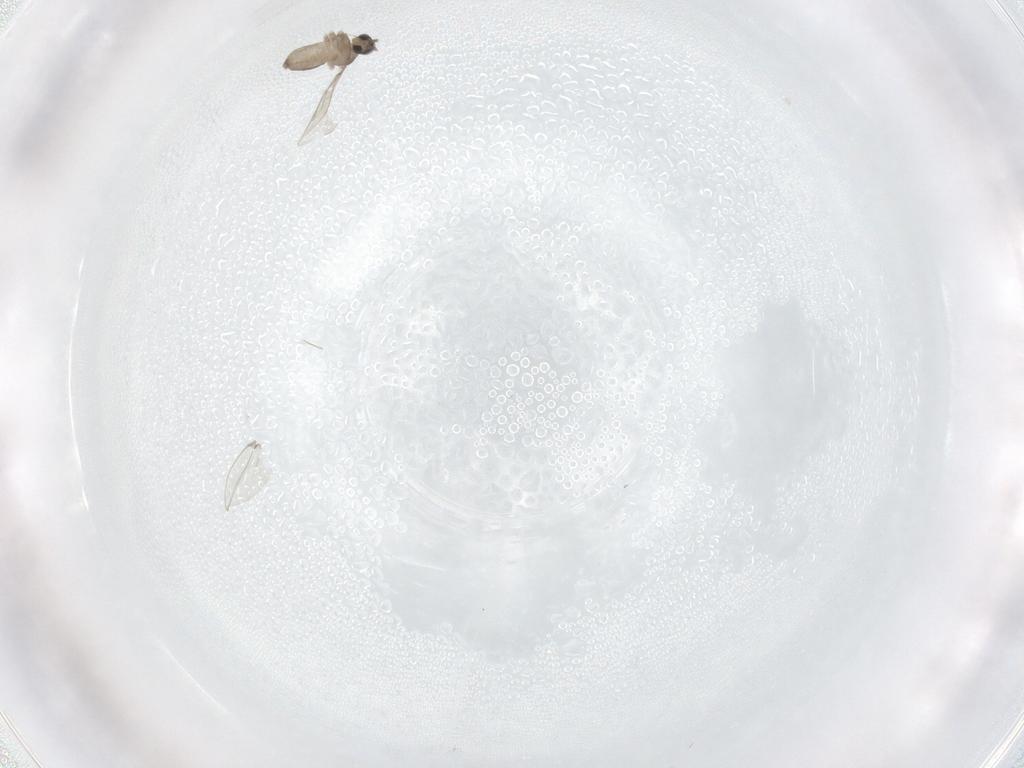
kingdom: Animalia
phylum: Arthropoda
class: Insecta
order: Diptera
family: Cecidomyiidae
